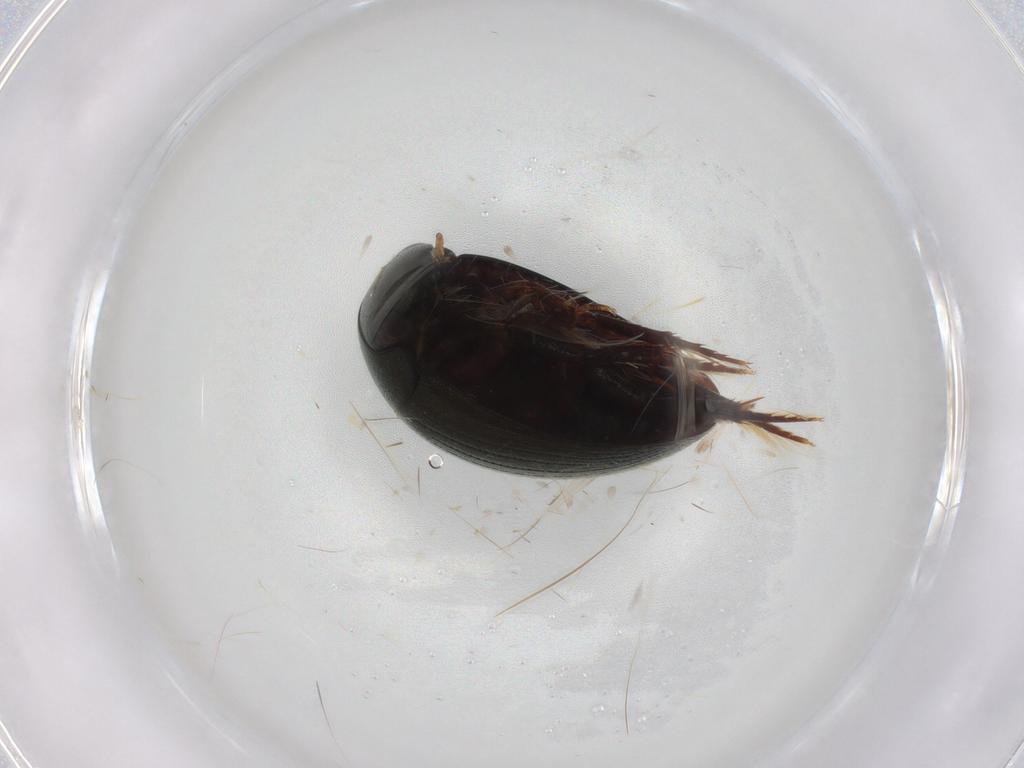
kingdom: Animalia
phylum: Arthropoda
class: Insecta
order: Coleoptera
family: Hydrophilidae
